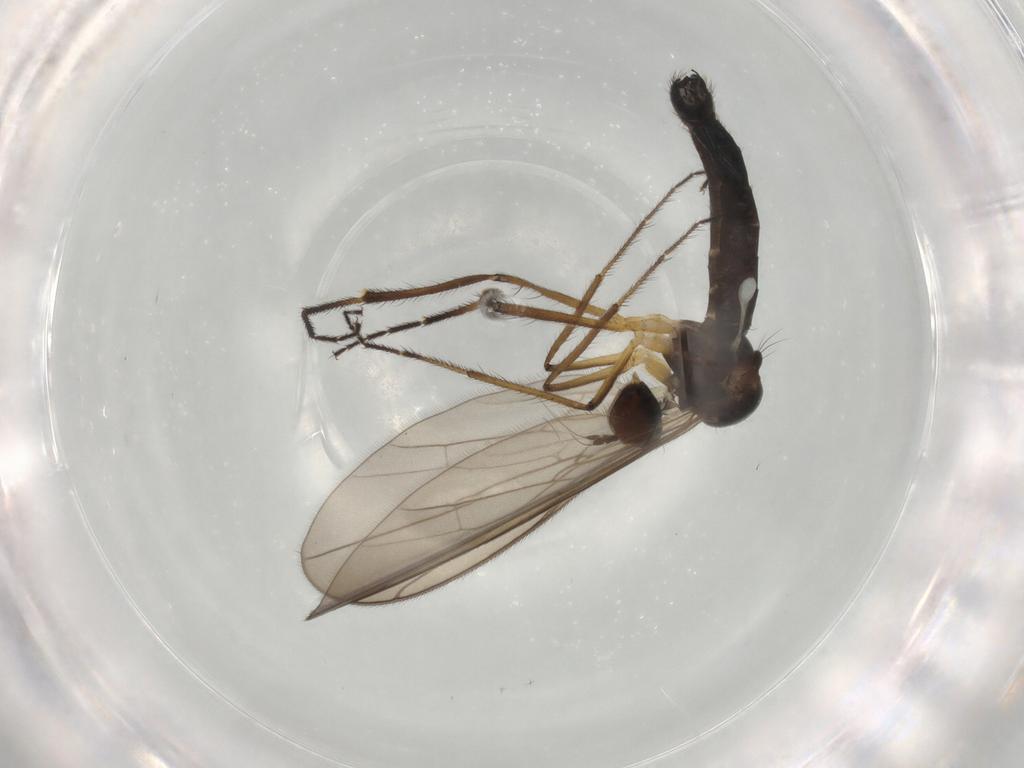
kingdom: Animalia
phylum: Arthropoda
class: Insecta
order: Diptera
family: Hybotidae
